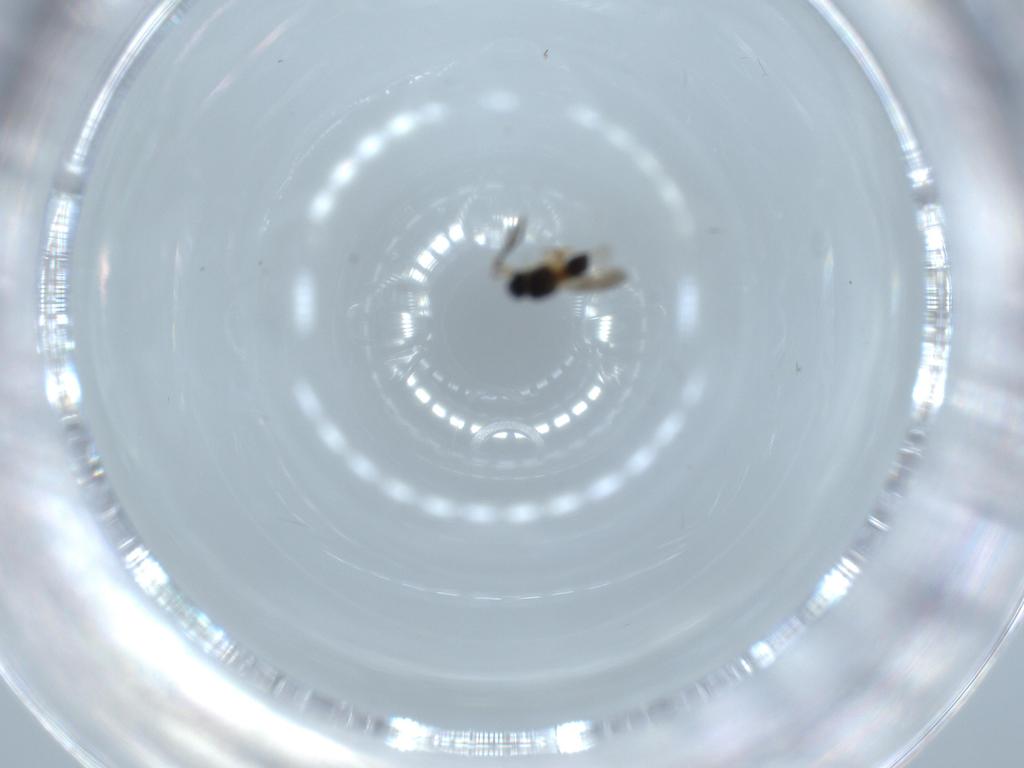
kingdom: Animalia
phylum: Arthropoda
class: Insecta
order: Hymenoptera
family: Scelionidae
